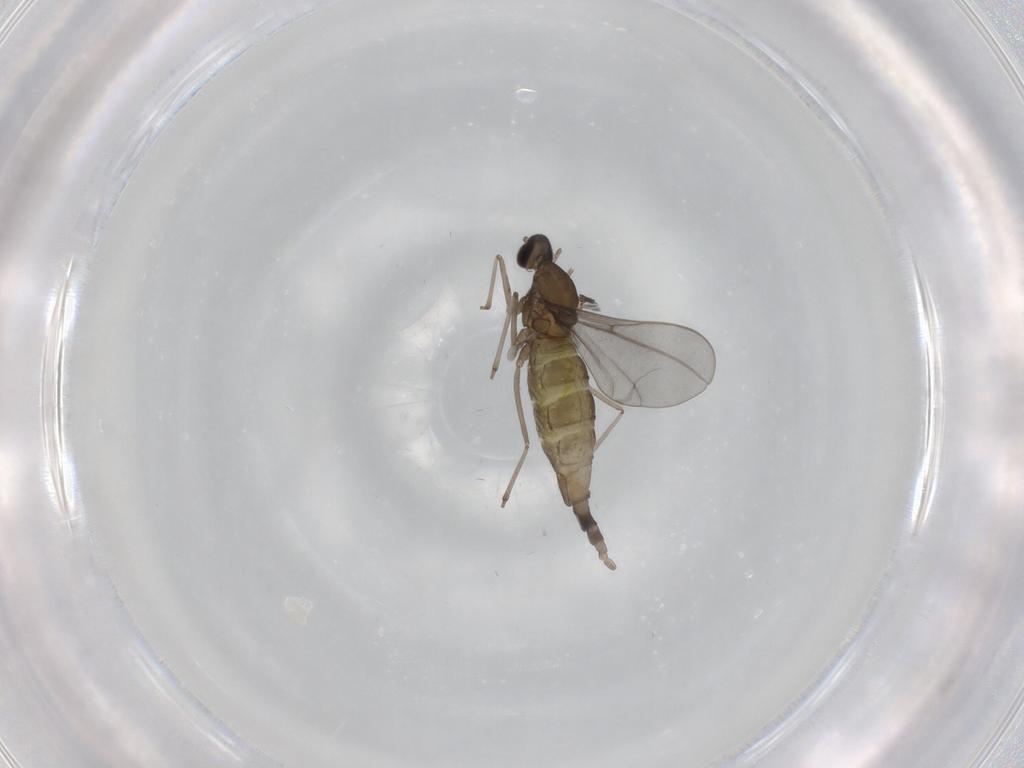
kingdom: Animalia
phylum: Arthropoda
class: Insecta
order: Diptera
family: Cecidomyiidae
